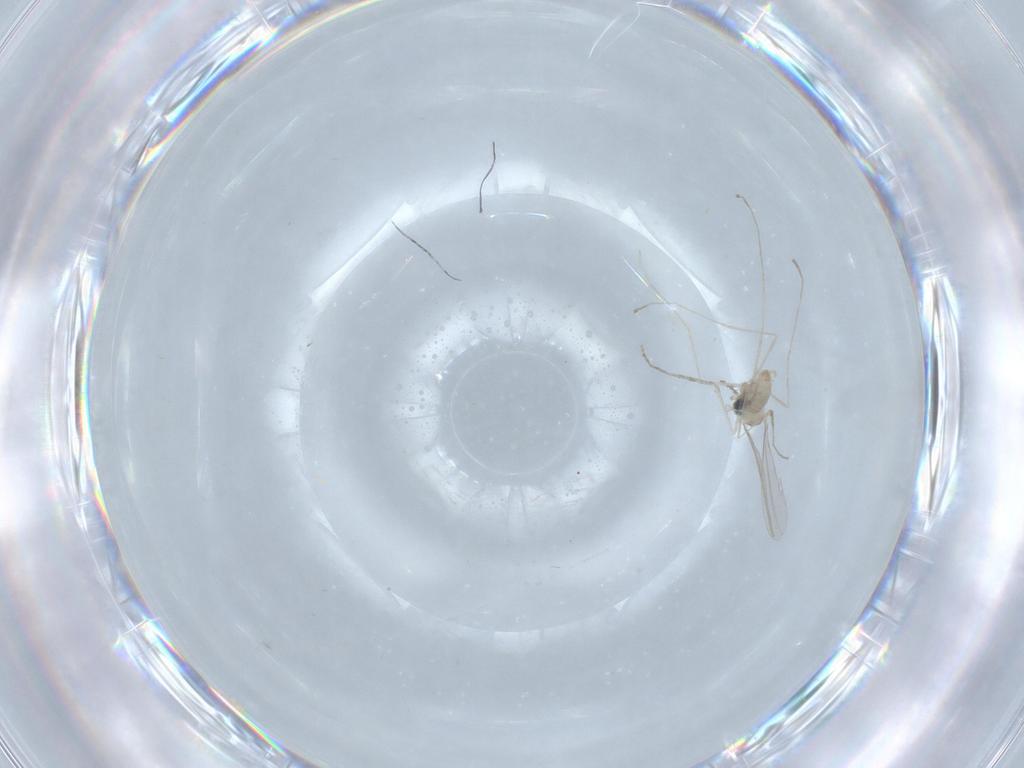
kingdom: Animalia
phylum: Arthropoda
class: Insecta
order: Diptera
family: Cecidomyiidae
